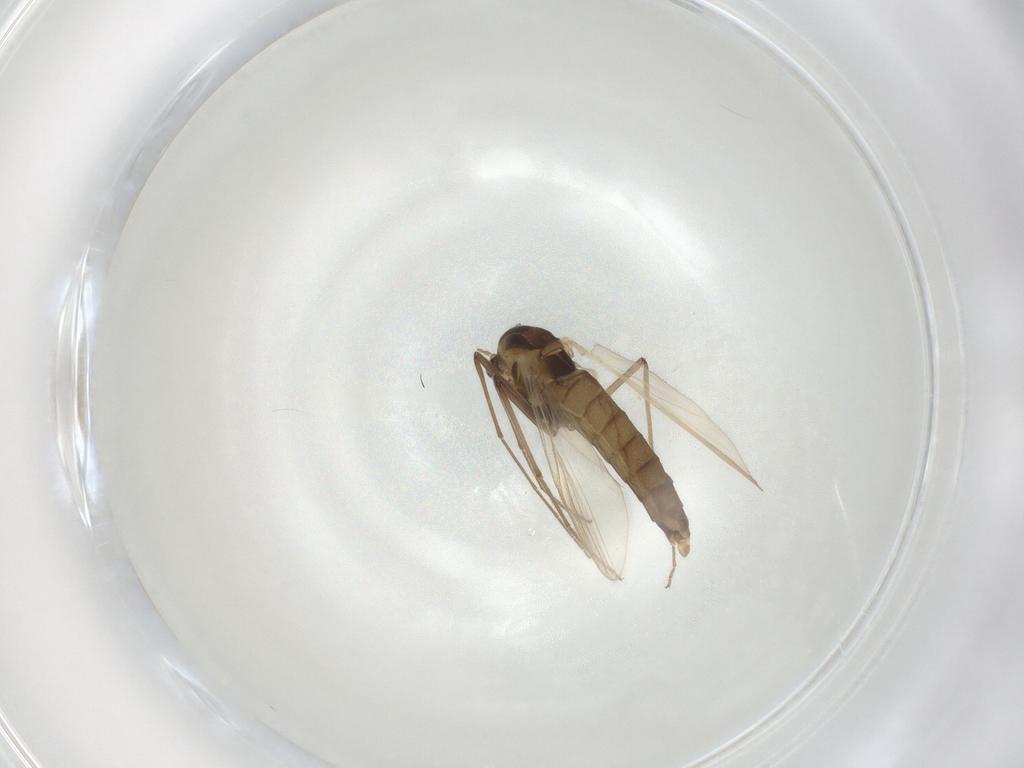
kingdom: Animalia
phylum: Arthropoda
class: Insecta
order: Diptera
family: Chironomidae
